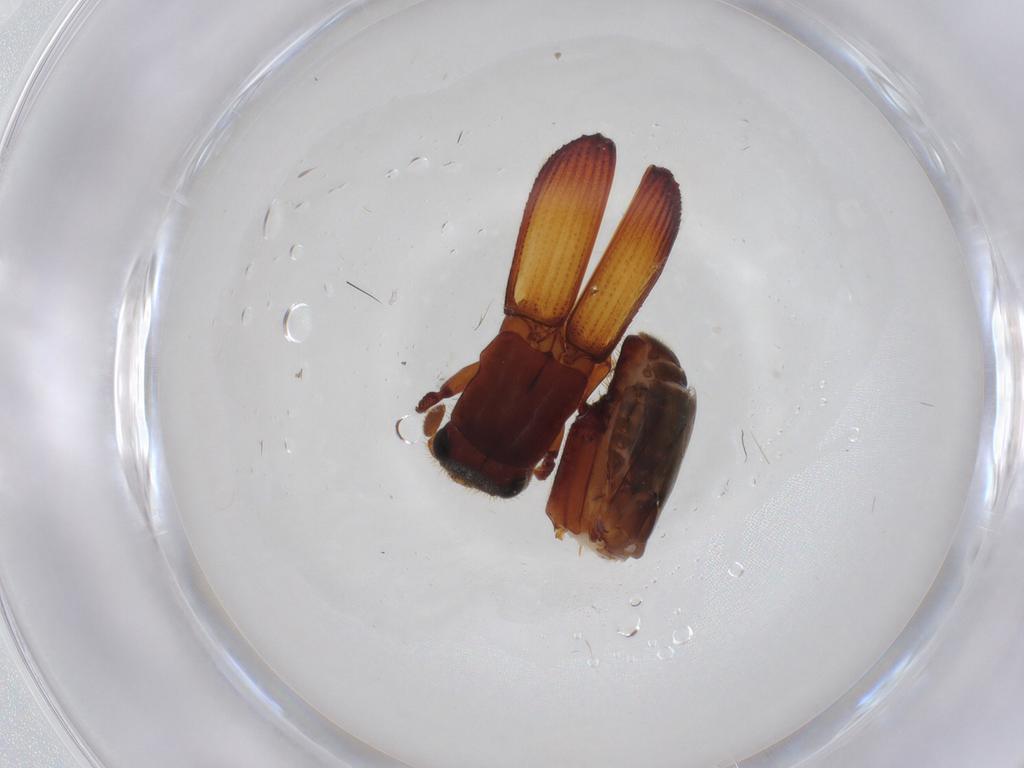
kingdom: Animalia
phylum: Arthropoda
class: Insecta
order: Coleoptera
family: Curculionidae
